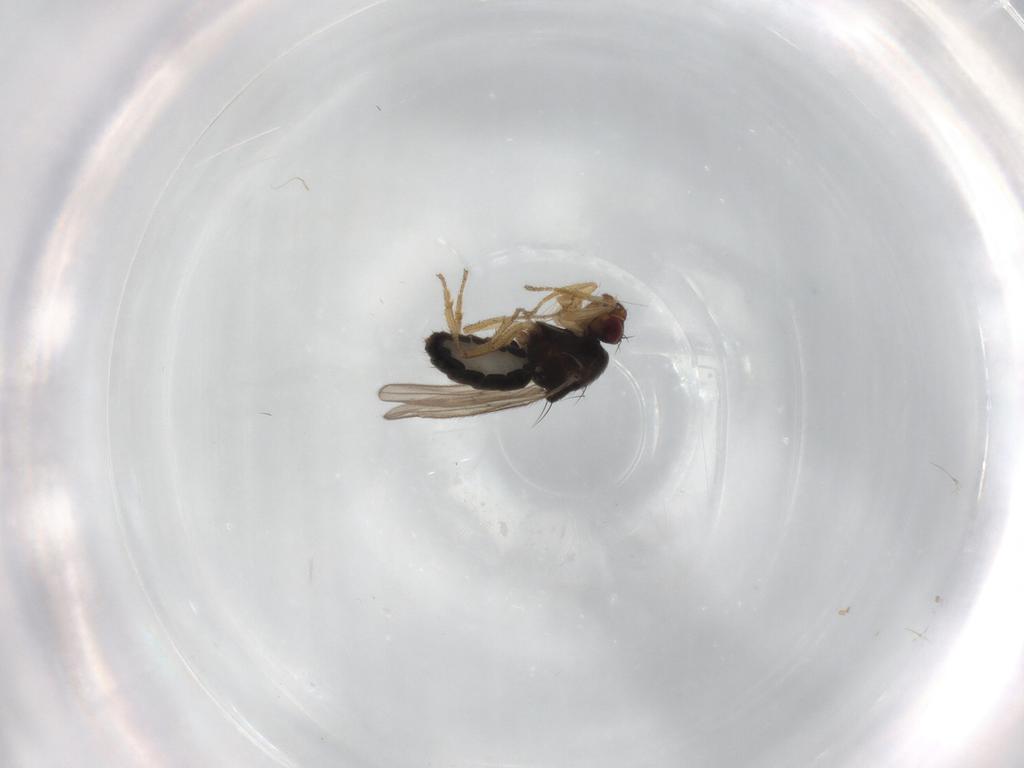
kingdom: Animalia
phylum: Arthropoda
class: Insecta
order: Diptera
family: Sphaeroceridae
